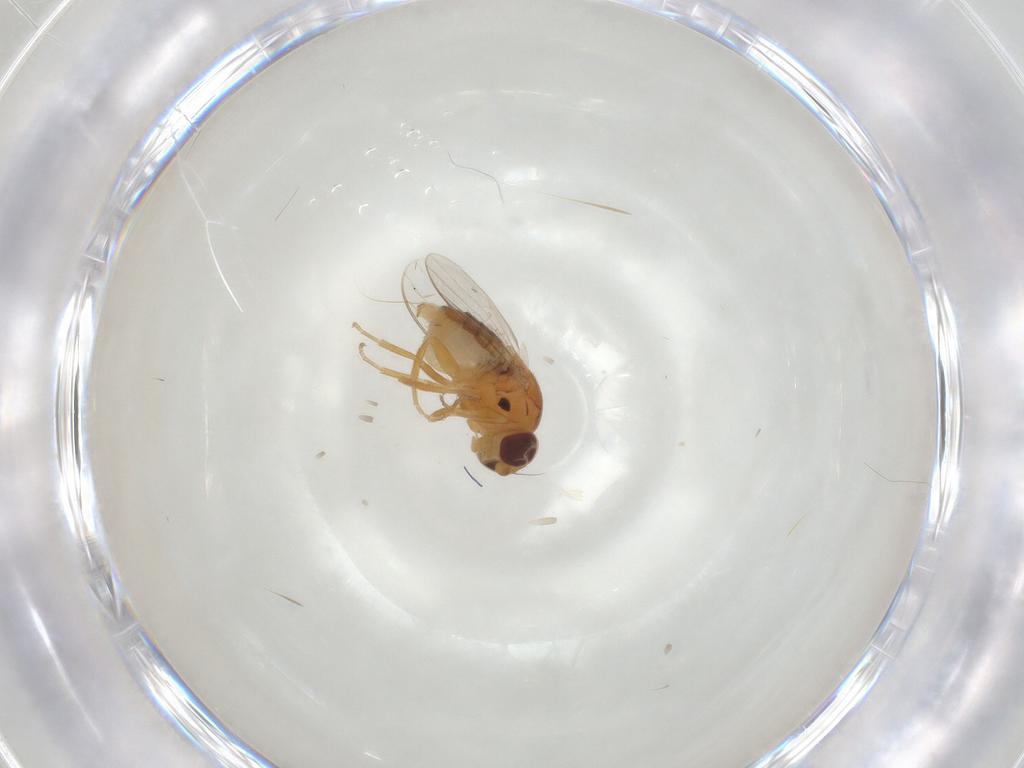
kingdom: Animalia
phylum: Arthropoda
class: Insecta
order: Diptera
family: Chloropidae
